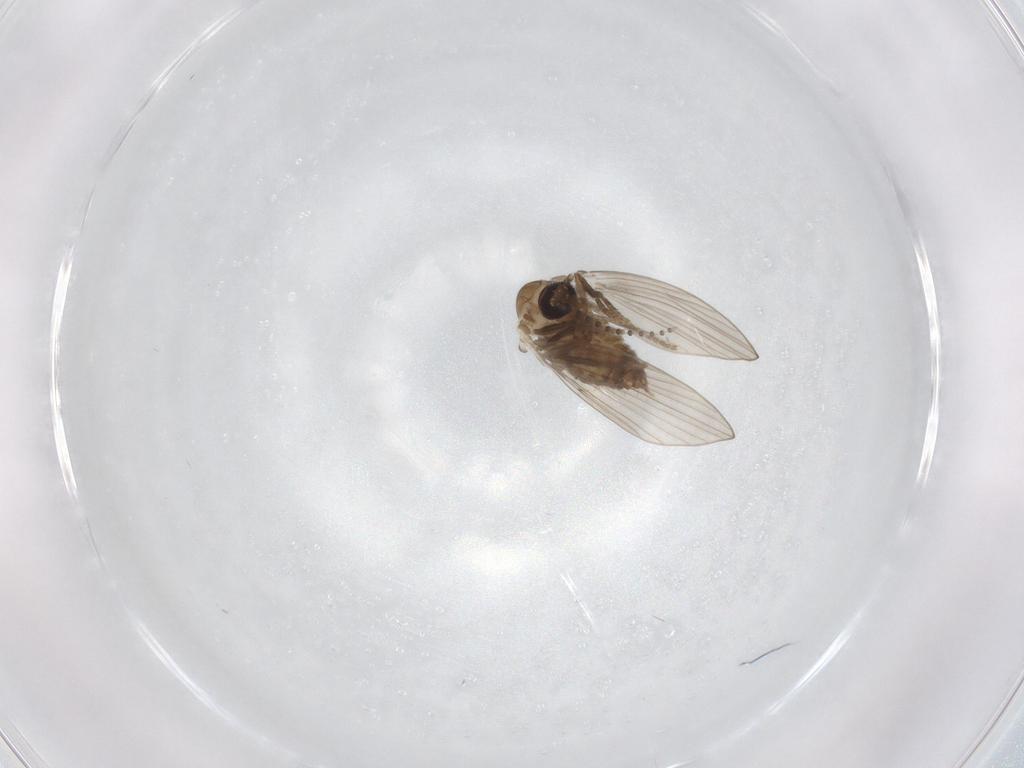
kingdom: Animalia
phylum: Arthropoda
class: Insecta
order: Diptera
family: Psychodidae
